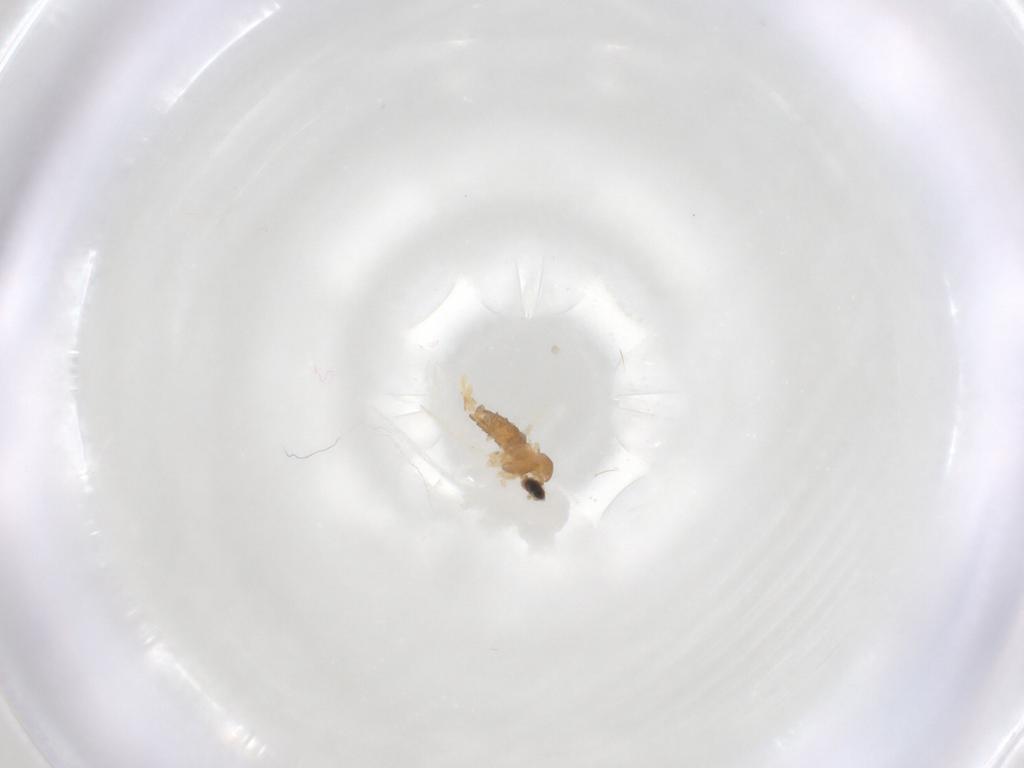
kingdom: Animalia
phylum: Arthropoda
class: Insecta
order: Diptera
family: Cecidomyiidae
